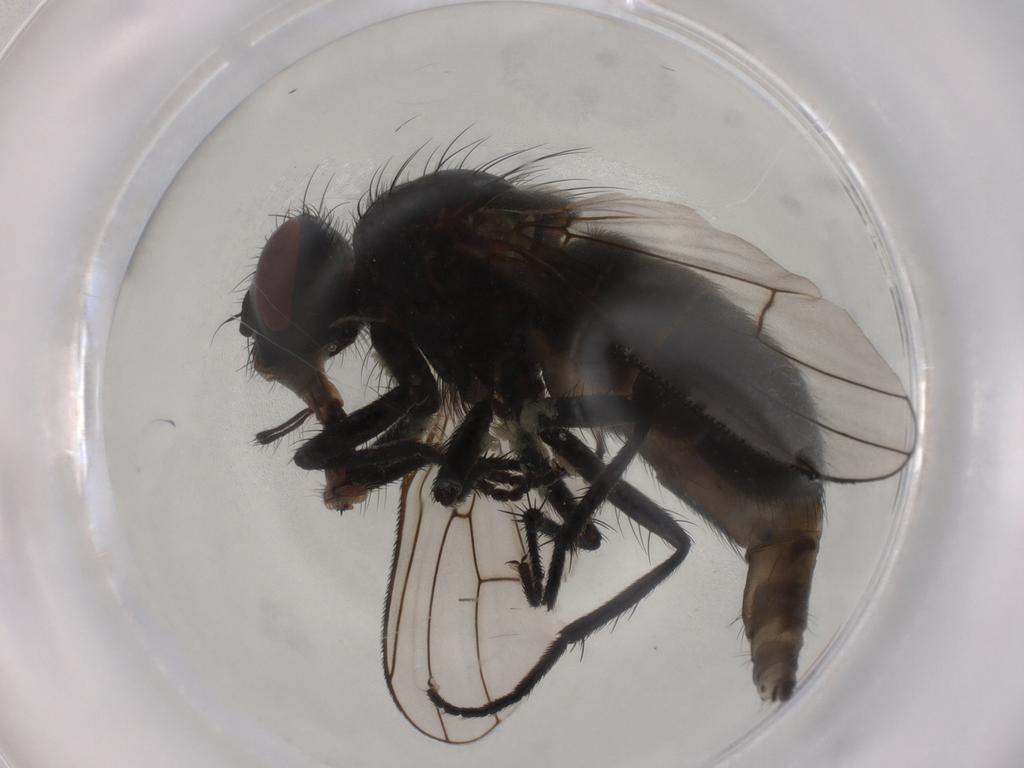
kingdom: Animalia
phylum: Arthropoda
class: Insecta
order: Diptera
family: Muscidae
